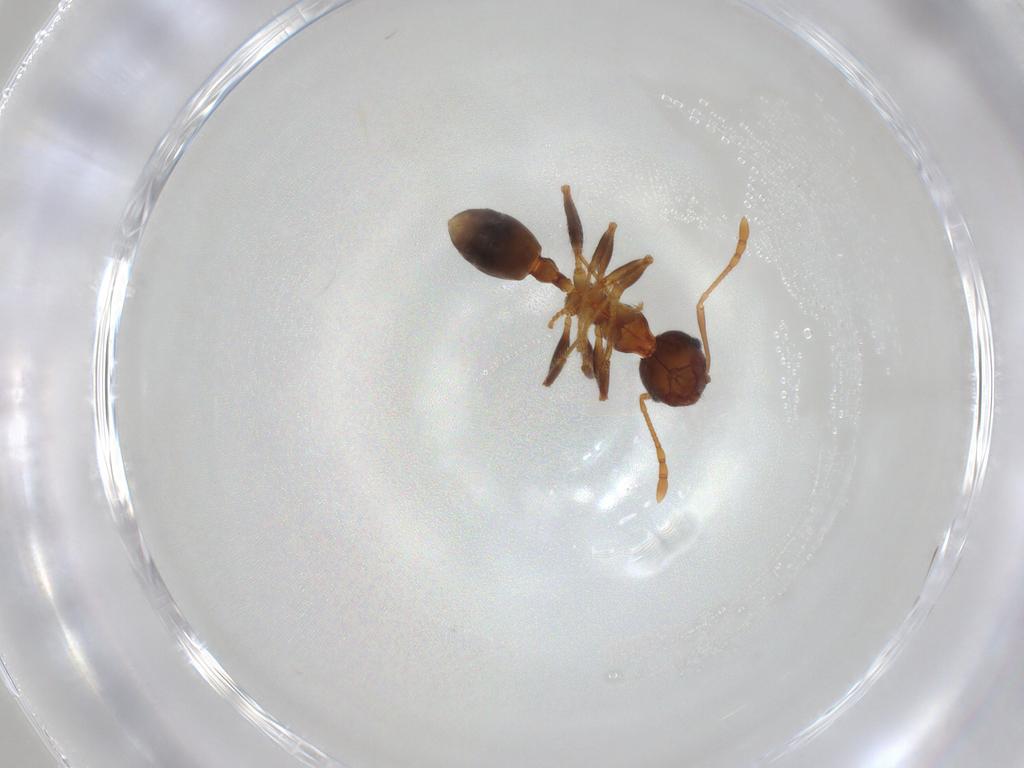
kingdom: Animalia
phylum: Arthropoda
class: Insecta
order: Hymenoptera
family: Formicidae
